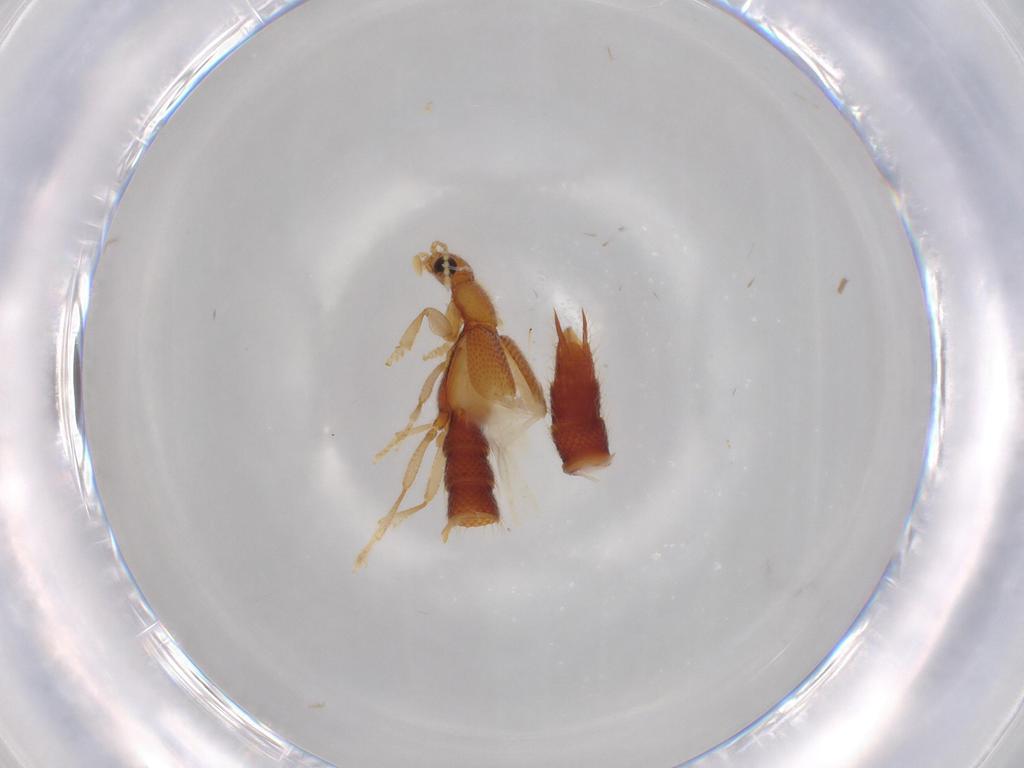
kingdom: Animalia
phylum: Arthropoda
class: Insecta
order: Coleoptera
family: Staphylinidae
